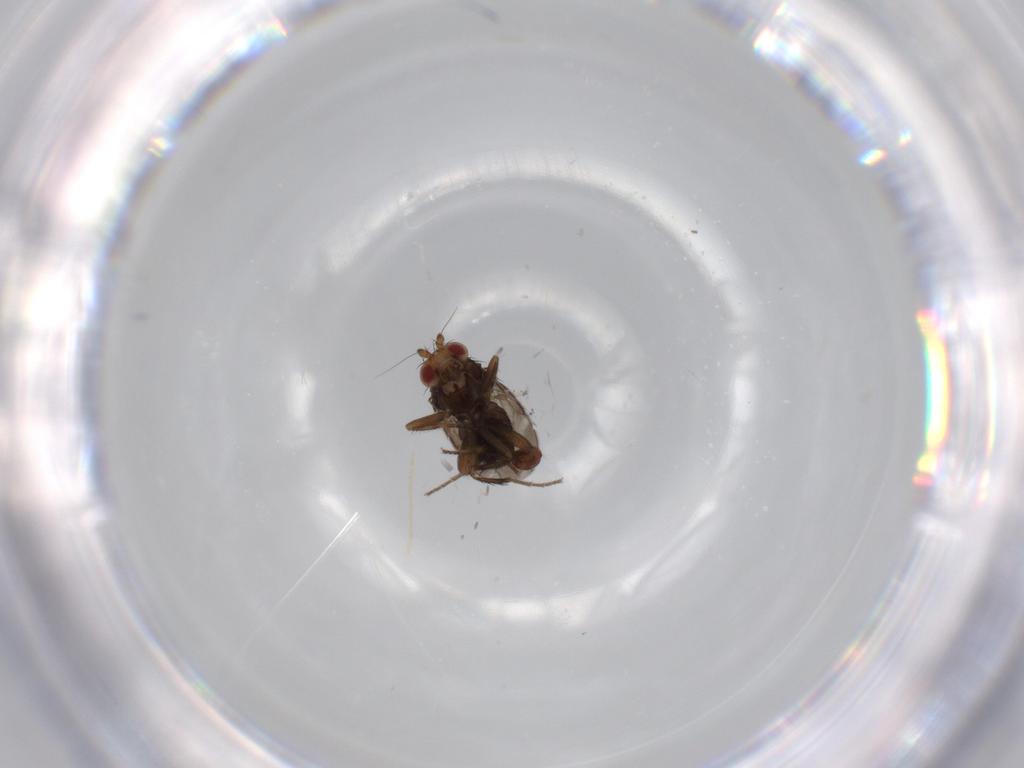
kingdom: Animalia
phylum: Arthropoda
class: Insecta
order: Diptera
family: Sphaeroceridae
